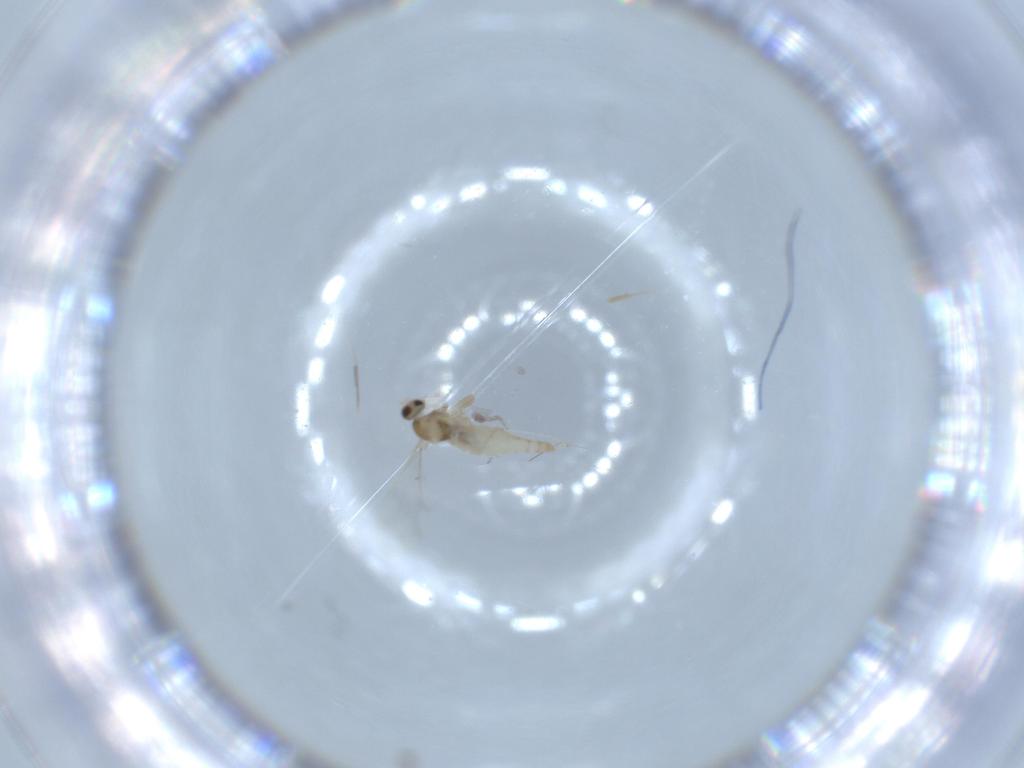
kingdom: Animalia
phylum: Arthropoda
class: Insecta
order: Diptera
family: Cecidomyiidae
